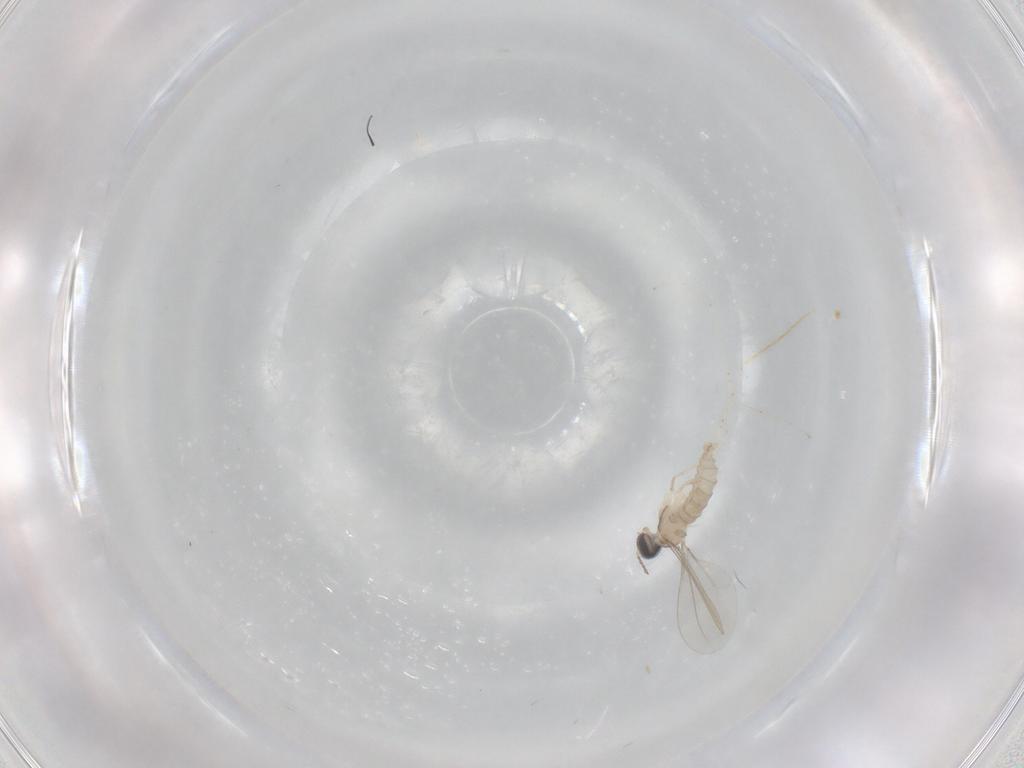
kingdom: Animalia
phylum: Arthropoda
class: Insecta
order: Diptera
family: Cecidomyiidae
